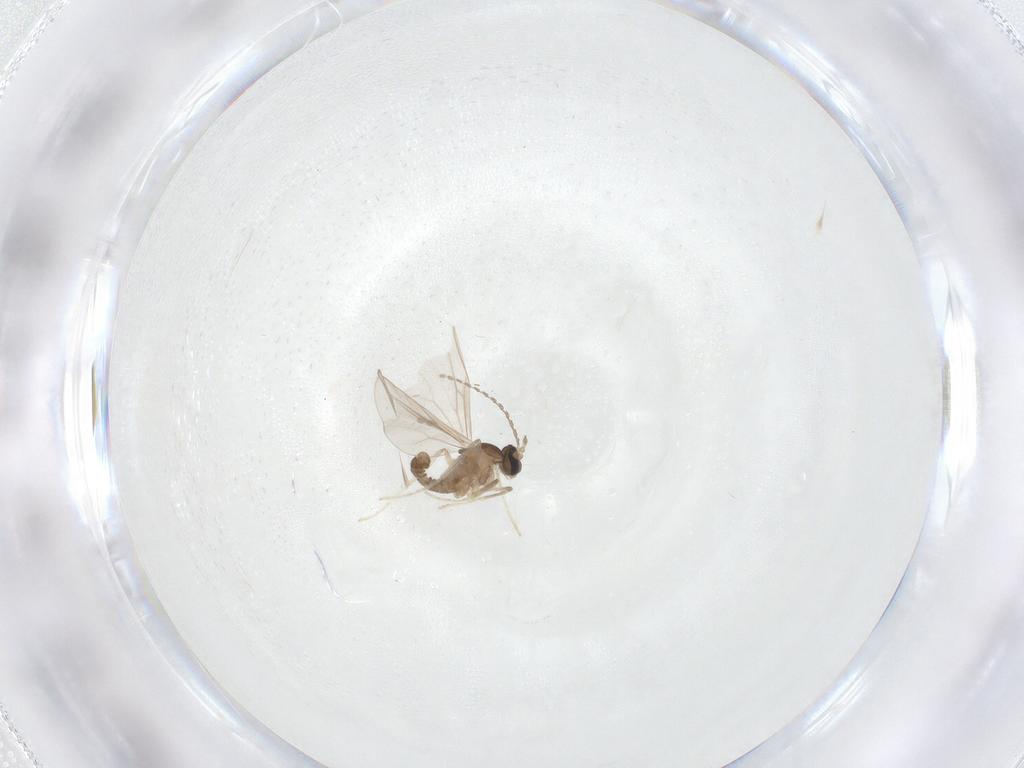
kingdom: Animalia
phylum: Arthropoda
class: Insecta
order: Diptera
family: Cecidomyiidae
